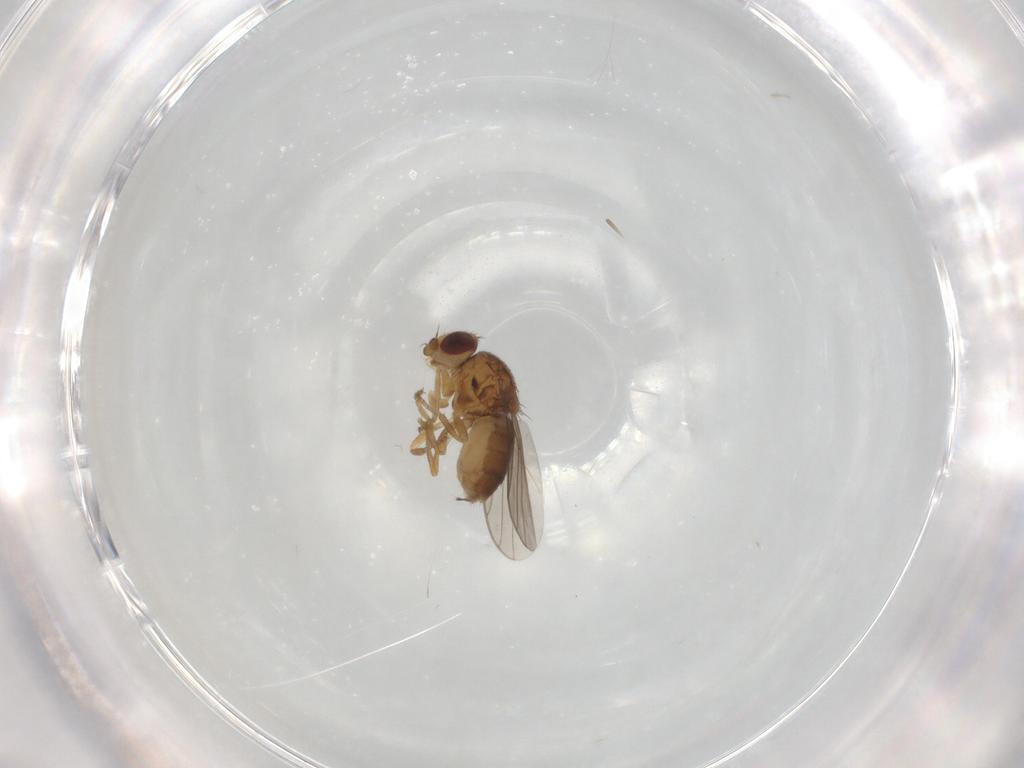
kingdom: Animalia
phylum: Arthropoda
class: Insecta
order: Diptera
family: Chloropidae
